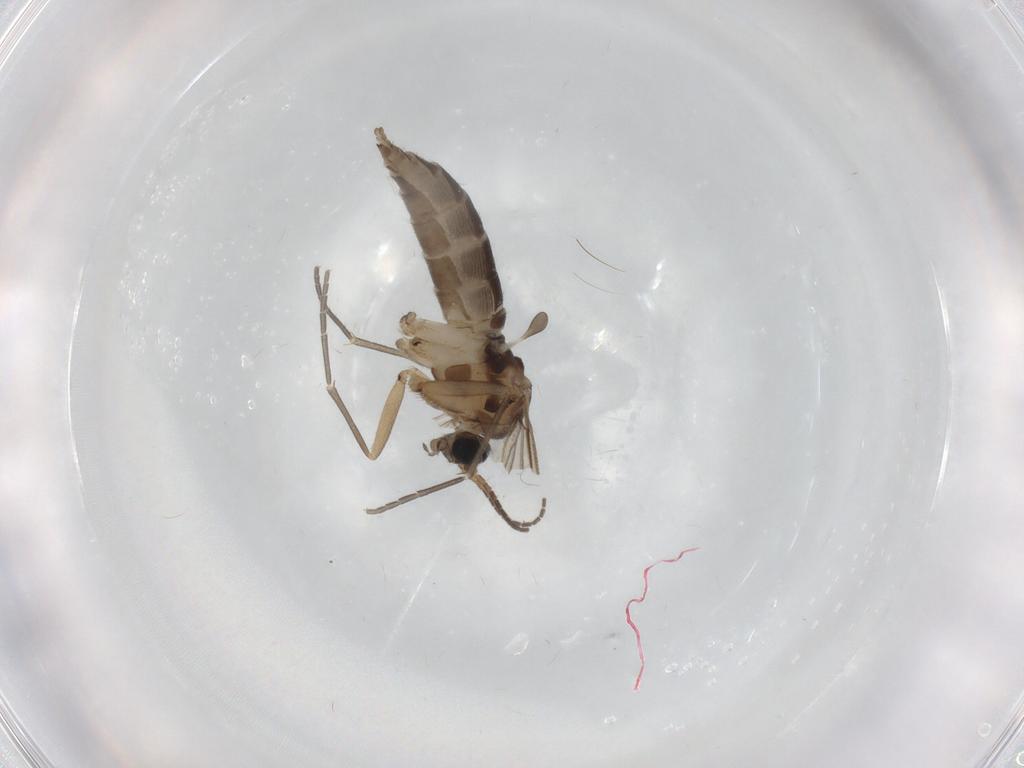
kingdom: Animalia
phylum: Arthropoda
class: Insecta
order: Diptera
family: Sciaridae
